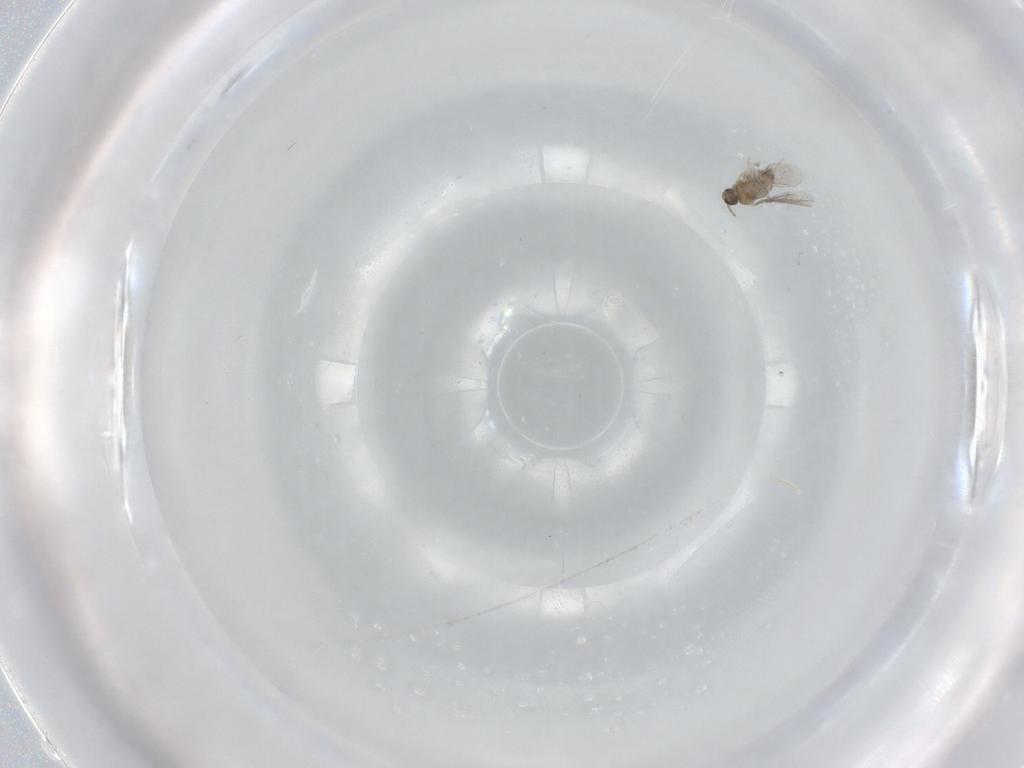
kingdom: Animalia
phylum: Arthropoda
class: Insecta
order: Diptera
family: Cecidomyiidae
